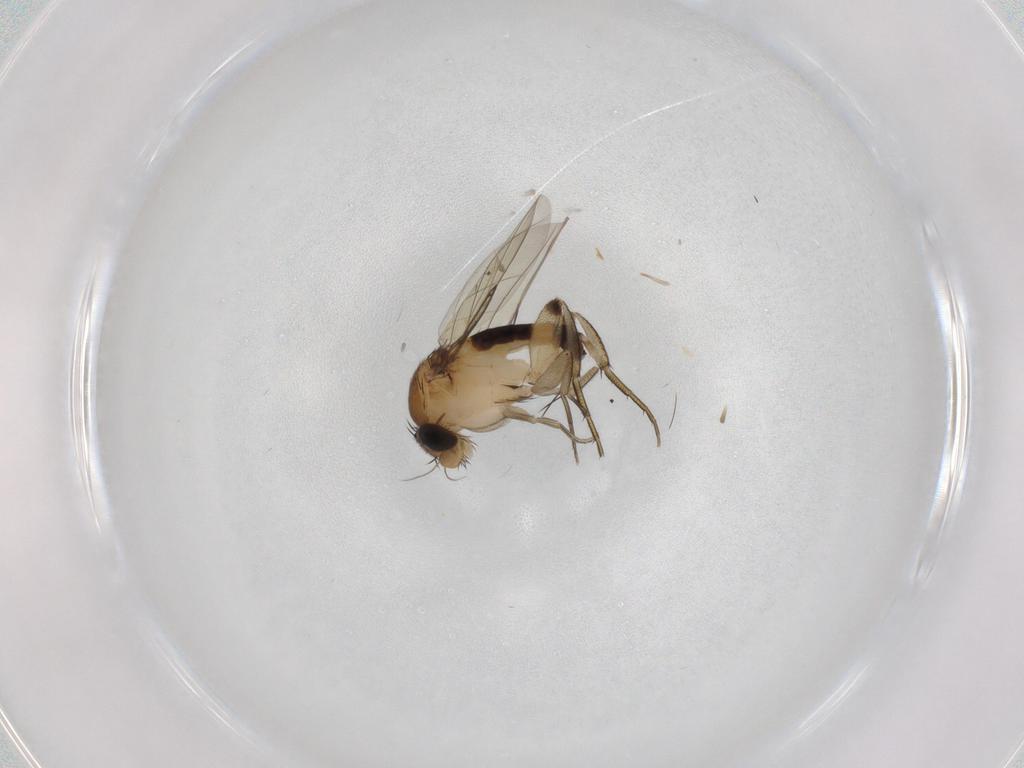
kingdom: Animalia
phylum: Arthropoda
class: Insecta
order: Diptera
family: Phoridae
